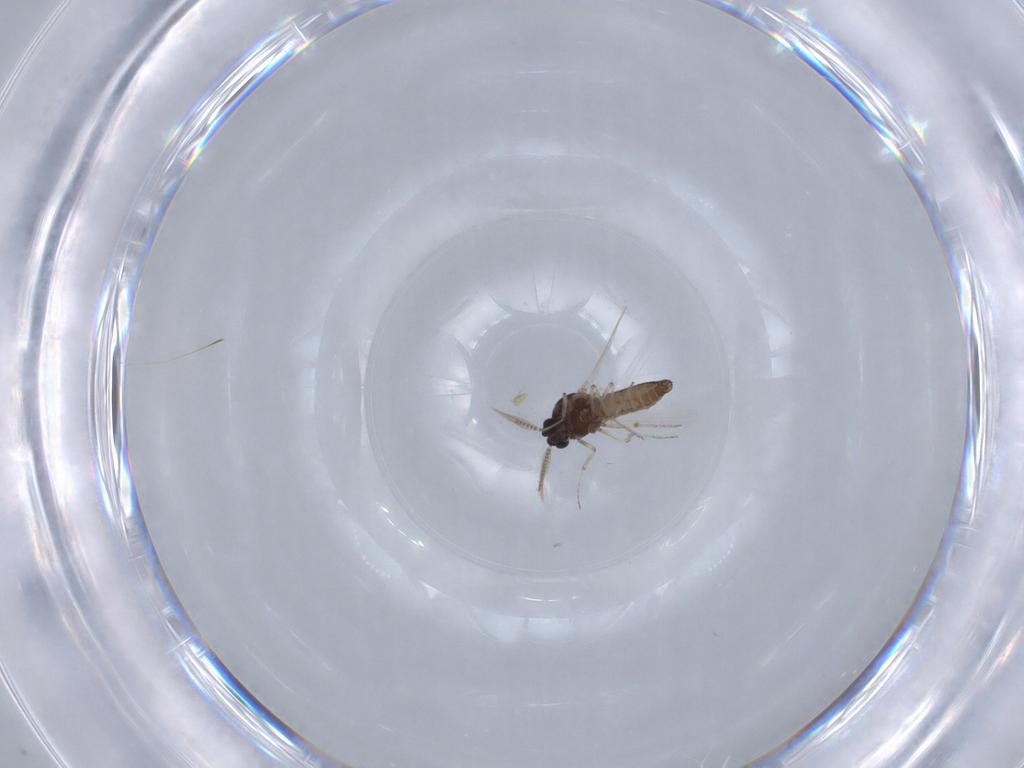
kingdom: Animalia
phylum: Arthropoda
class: Insecta
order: Diptera
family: Ceratopogonidae
